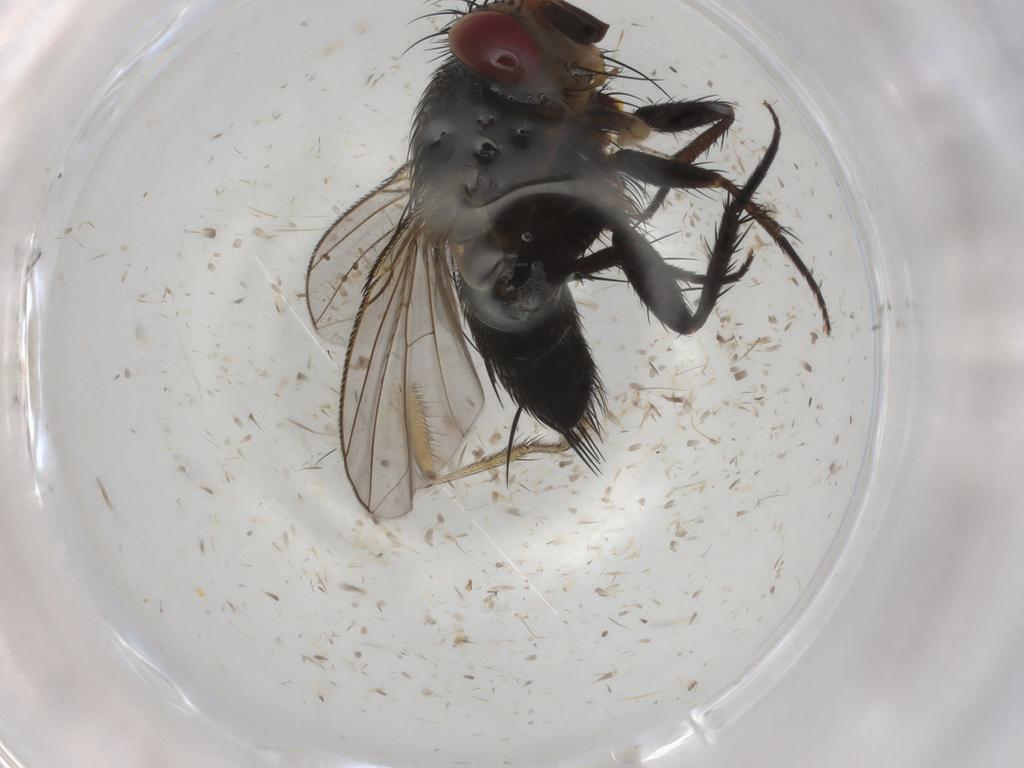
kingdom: Animalia
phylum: Arthropoda
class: Insecta
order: Diptera
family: Tachinidae
